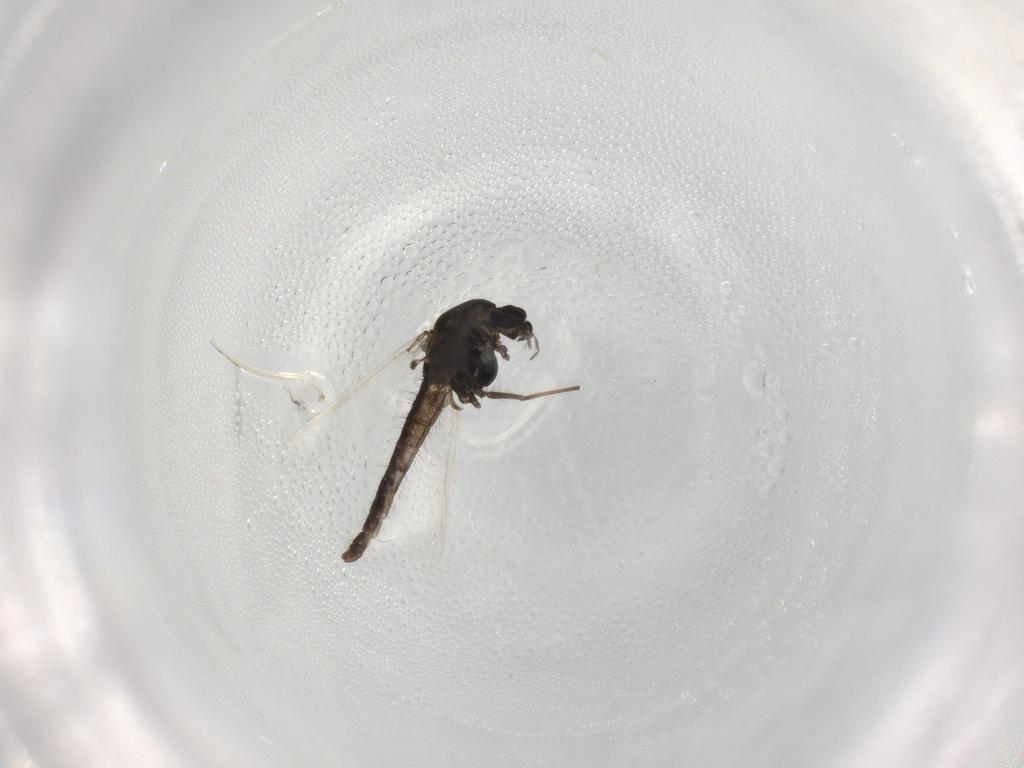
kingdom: Animalia
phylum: Arthropoda
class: Insecta
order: Diptera
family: Chironomidae
